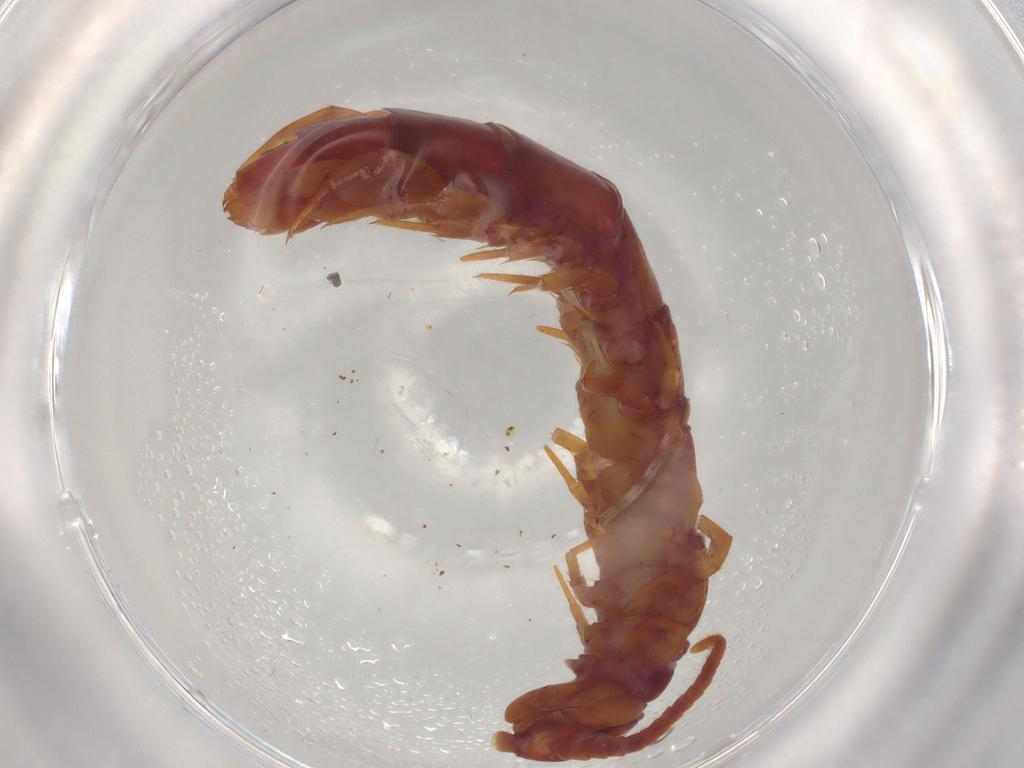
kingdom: Animalia
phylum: Arthropoda
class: Chilopoda
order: Lithobiomorpha
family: Lithobiidae
